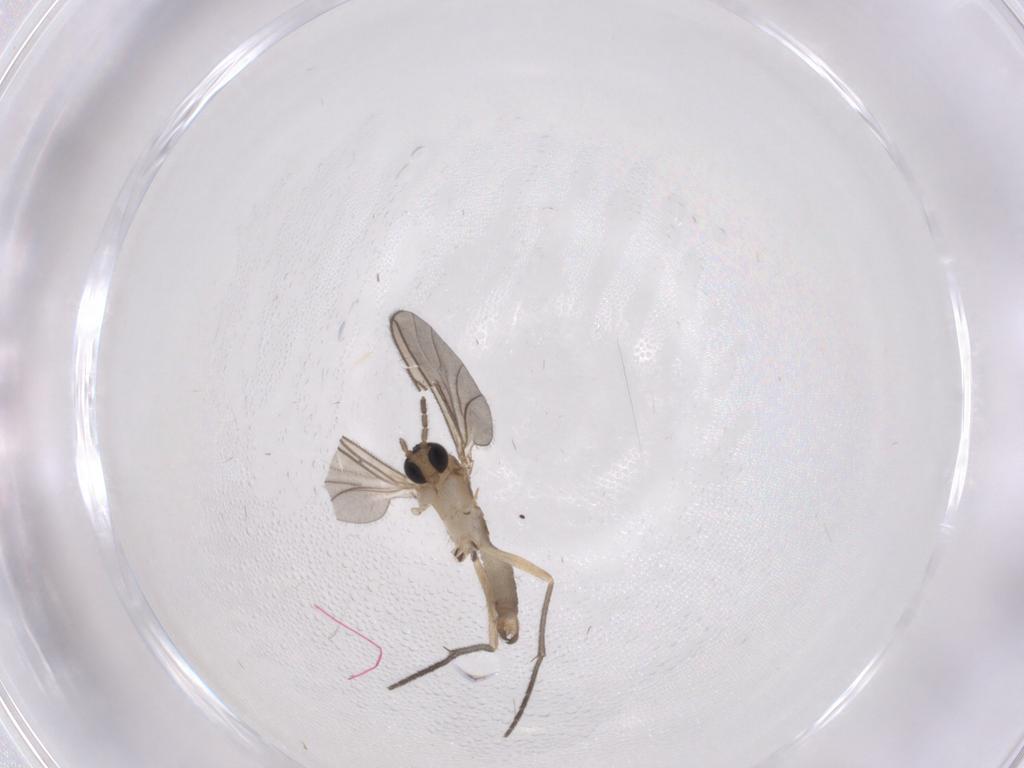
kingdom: Animalia
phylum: Arthropoda
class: Insecta
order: Diptera
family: Sciaridae
